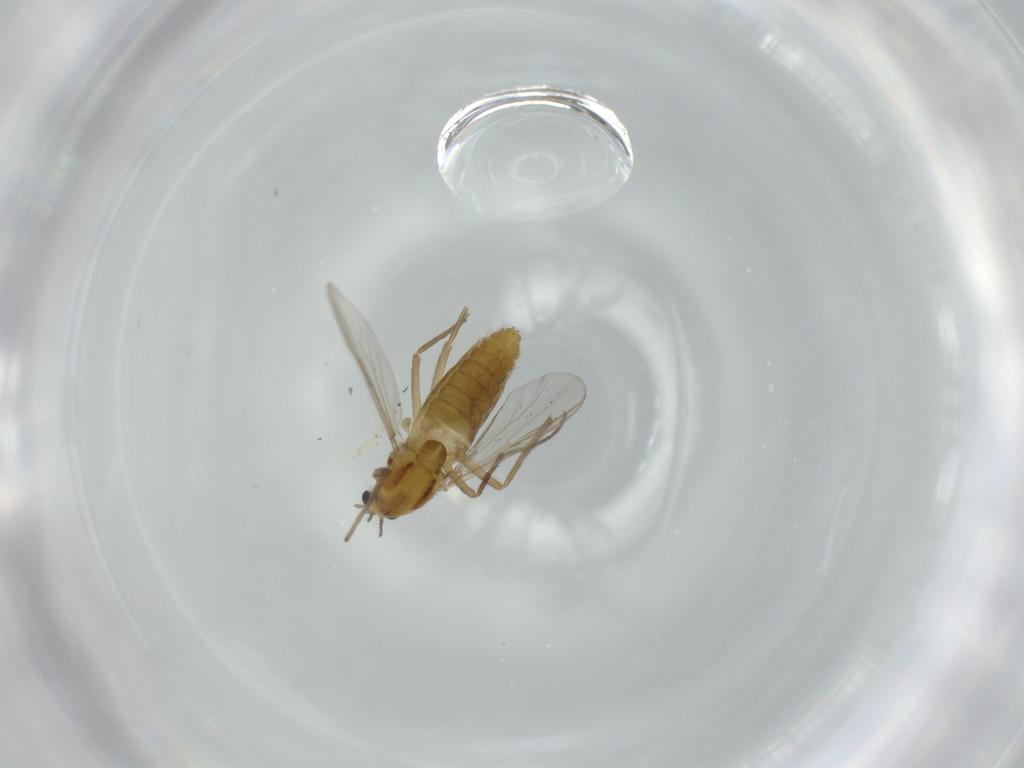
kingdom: Animalia
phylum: Arthropoda
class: Insecta
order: Diptera
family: Chironomidae
